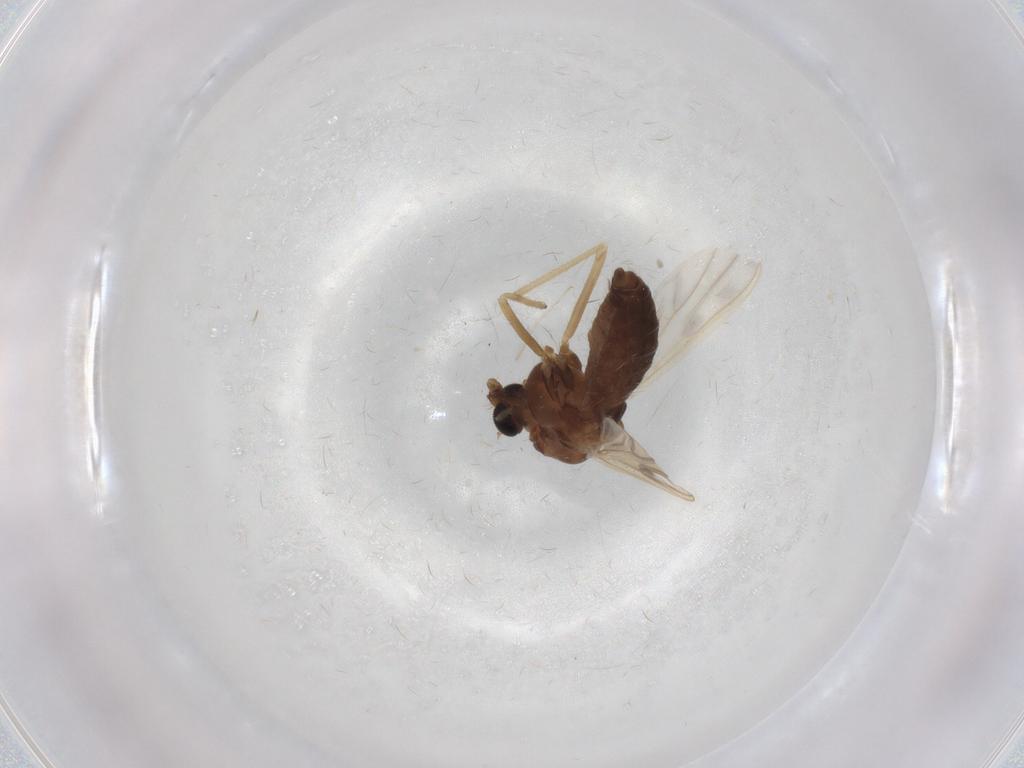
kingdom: Animalia
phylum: Arthropoda
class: Insecta
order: Diptera
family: Chironomidae
